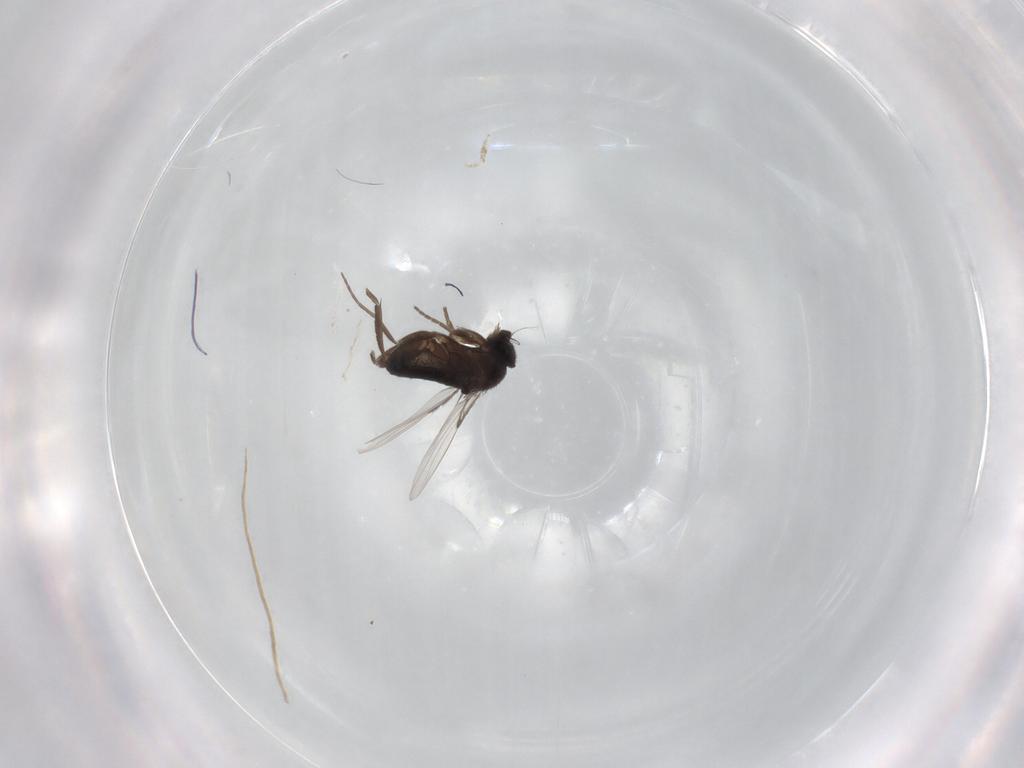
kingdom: Animalia
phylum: Arthropoda
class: Insecta
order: Diptera
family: Phoridae
